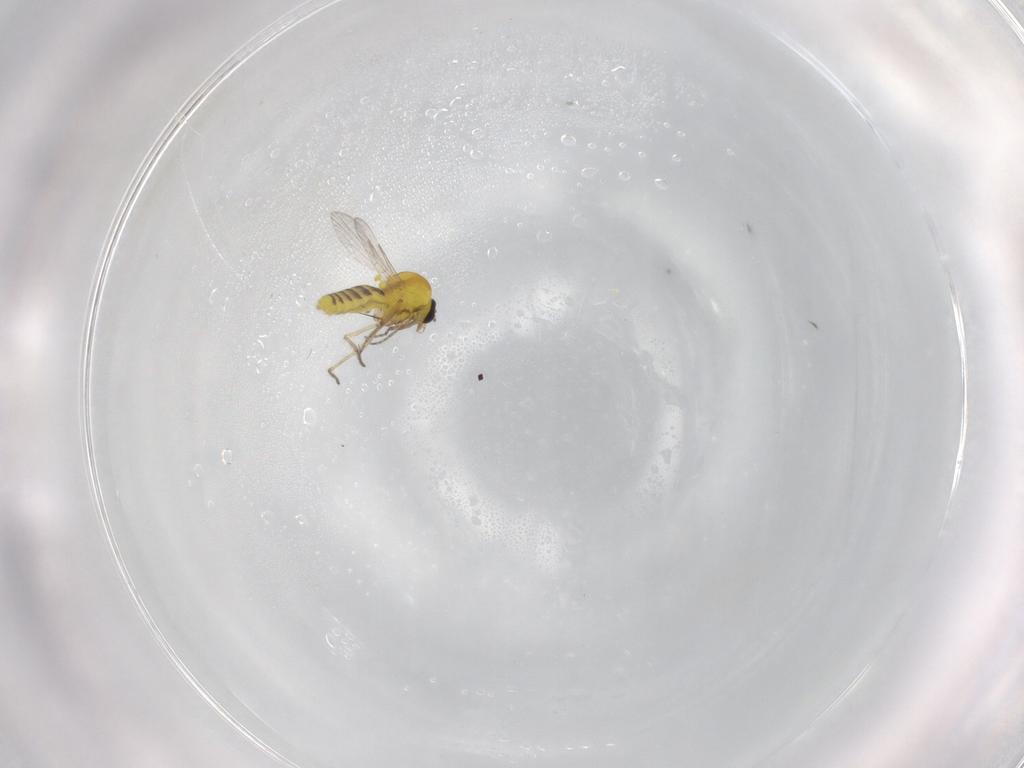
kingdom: Animalia
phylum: Arthropoda
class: Insecta
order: Diptera
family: Ceratopogonidae
